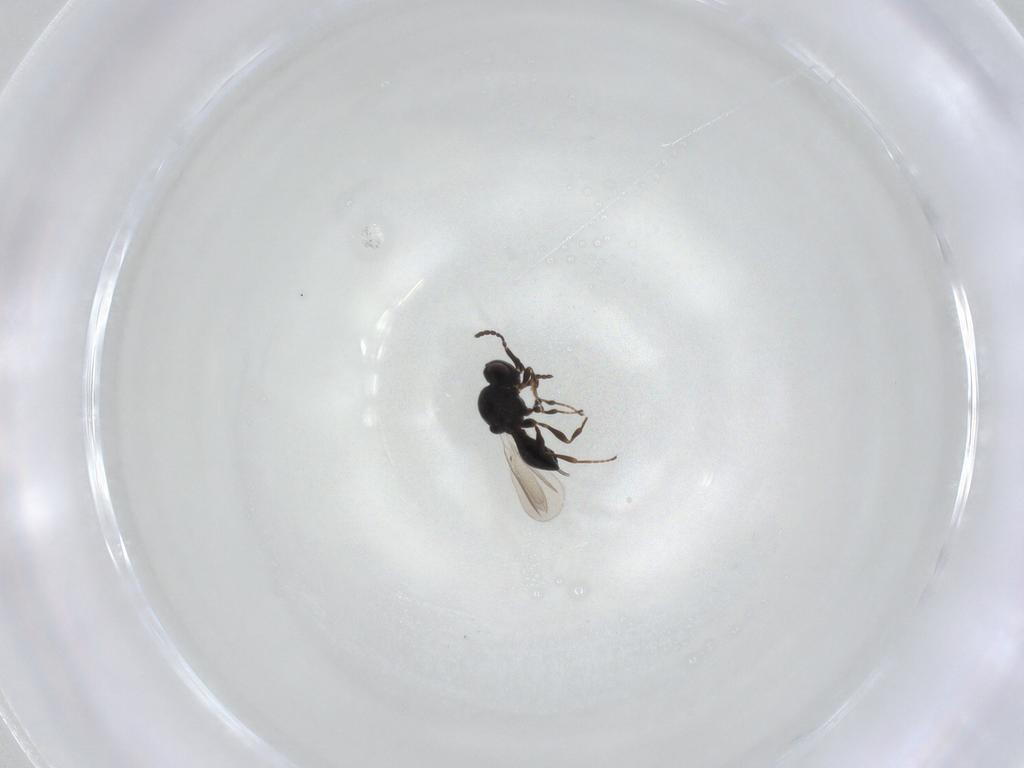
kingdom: Animalia
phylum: Arthropoda
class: Insecta
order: Hymenoptera
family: Platygastridae
